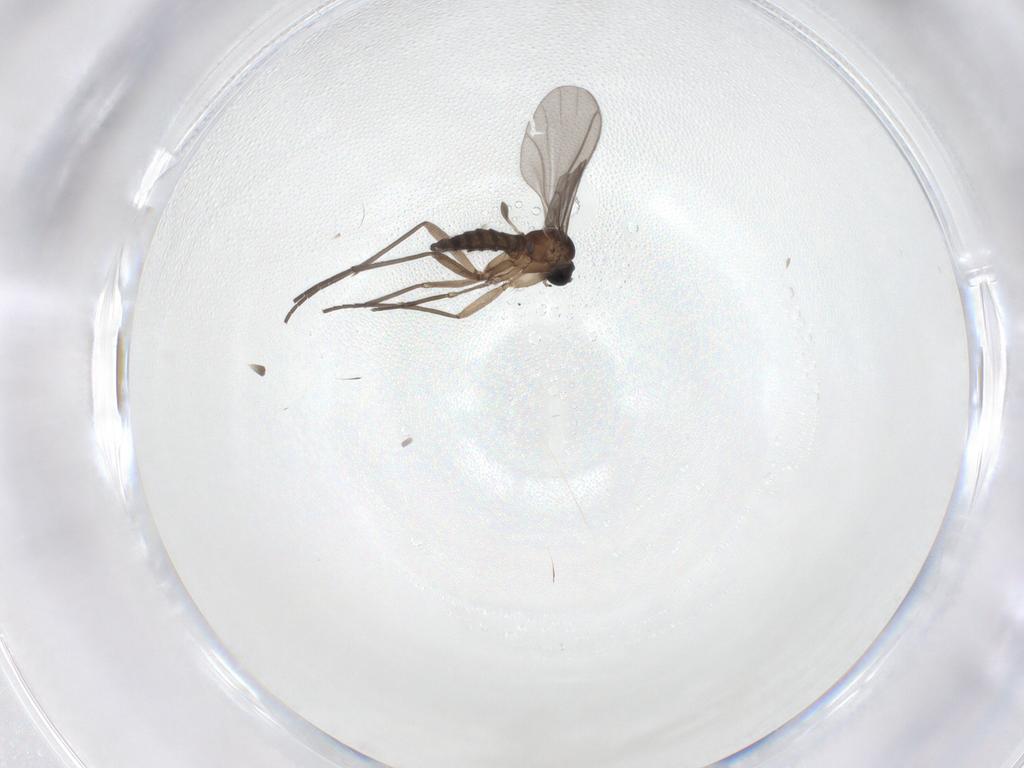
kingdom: Animalia
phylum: Arthropoda
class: Insecta
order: Diptera
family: Sciaridae
